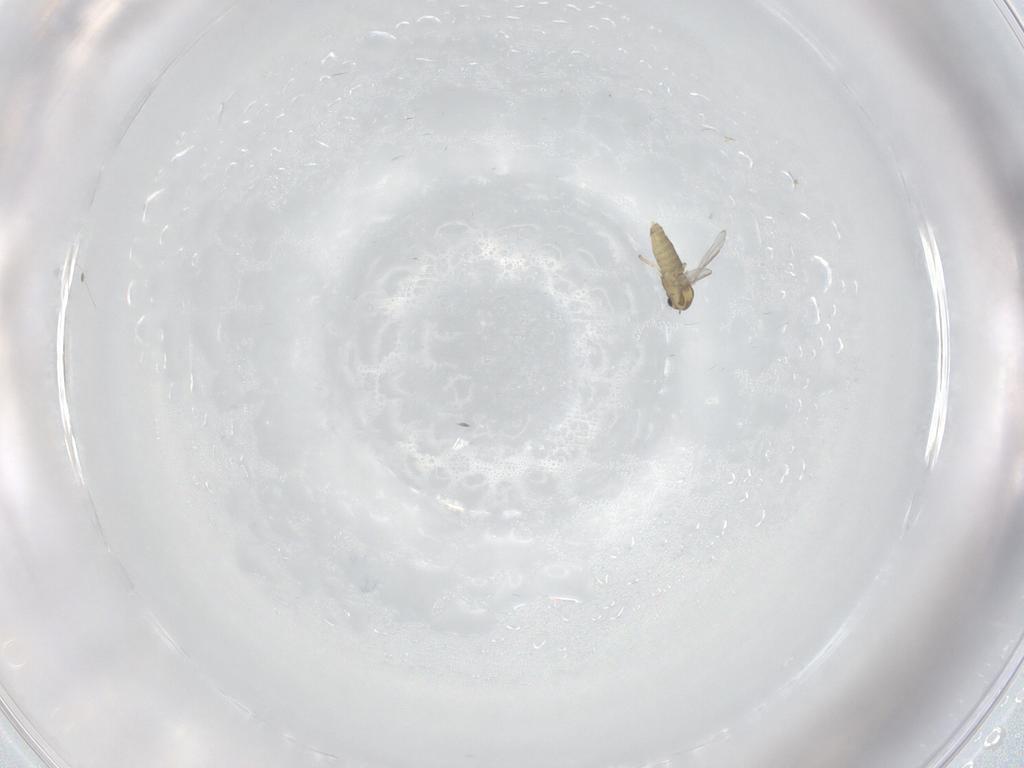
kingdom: Animalia
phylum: Arthropoda
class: Insecta
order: Diptera
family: Chironomidae
